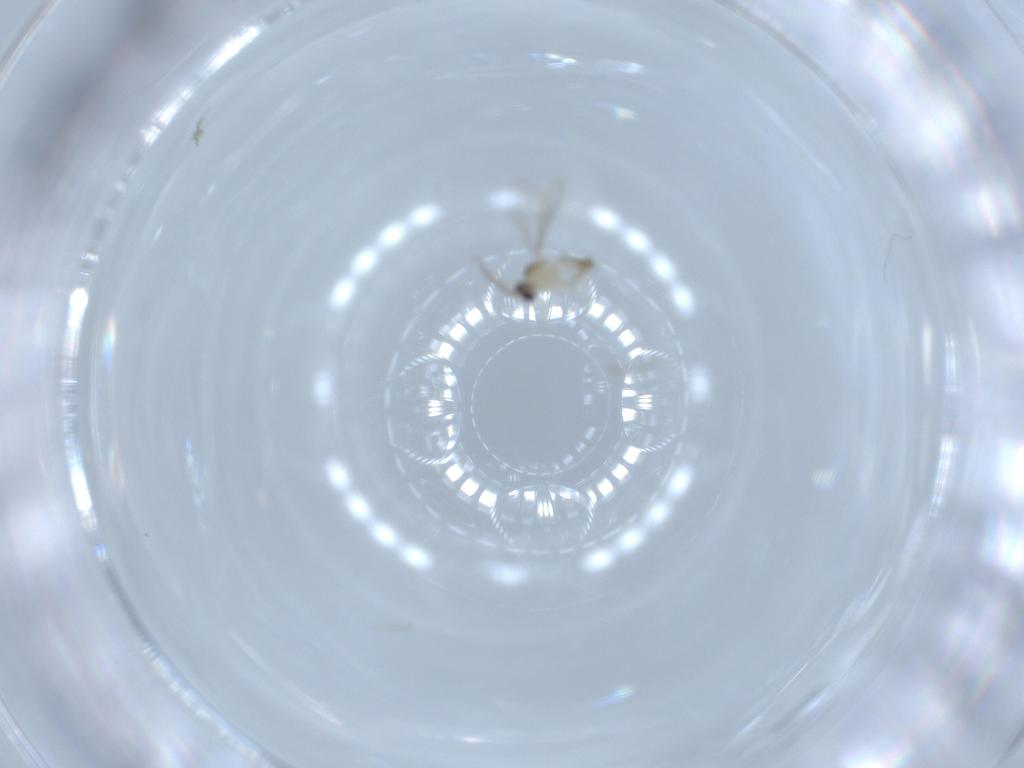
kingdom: Animalia
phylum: Arthropoda
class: Insecta
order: Diptera
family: Cecidomyiidae
